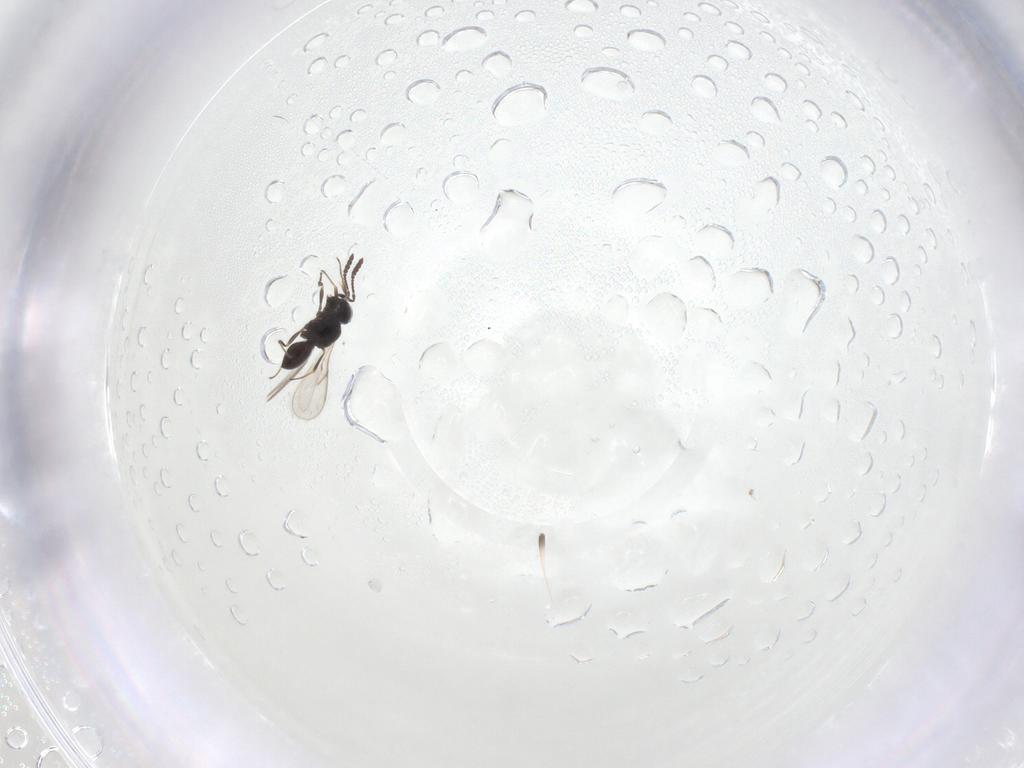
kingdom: Animalia
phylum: Arthropoda
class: Insecta
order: Hymenoptera
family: Scelionidae
